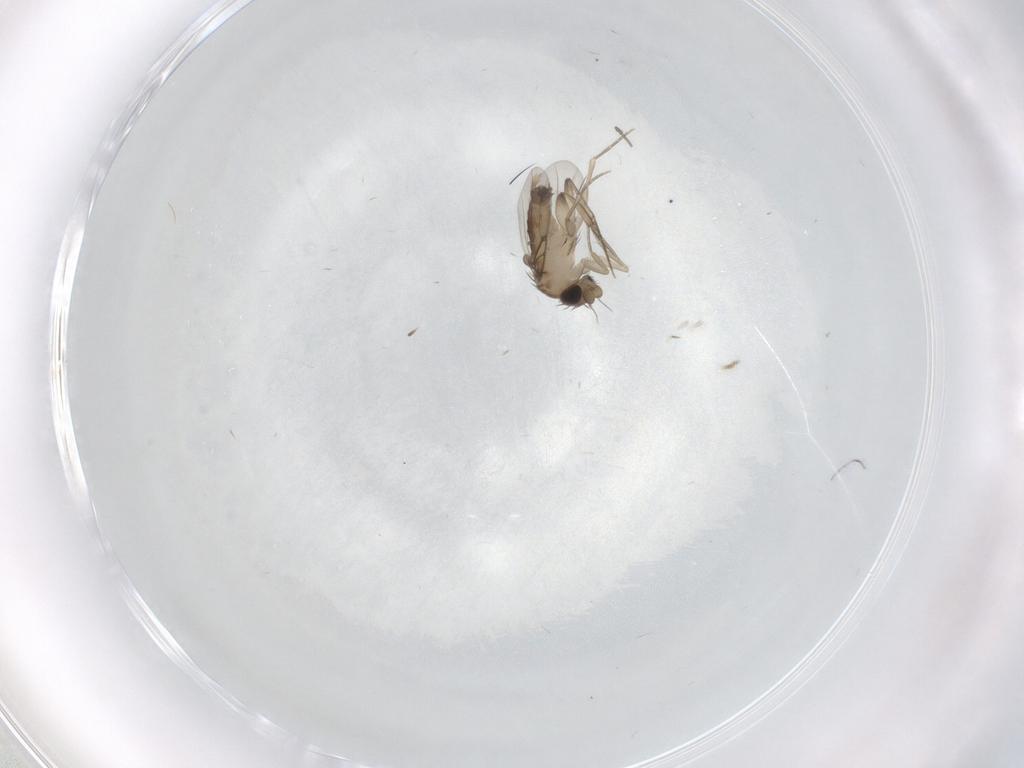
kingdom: Animalia
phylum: Arthropoda
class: Insecta
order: Diptera
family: Phoridae
